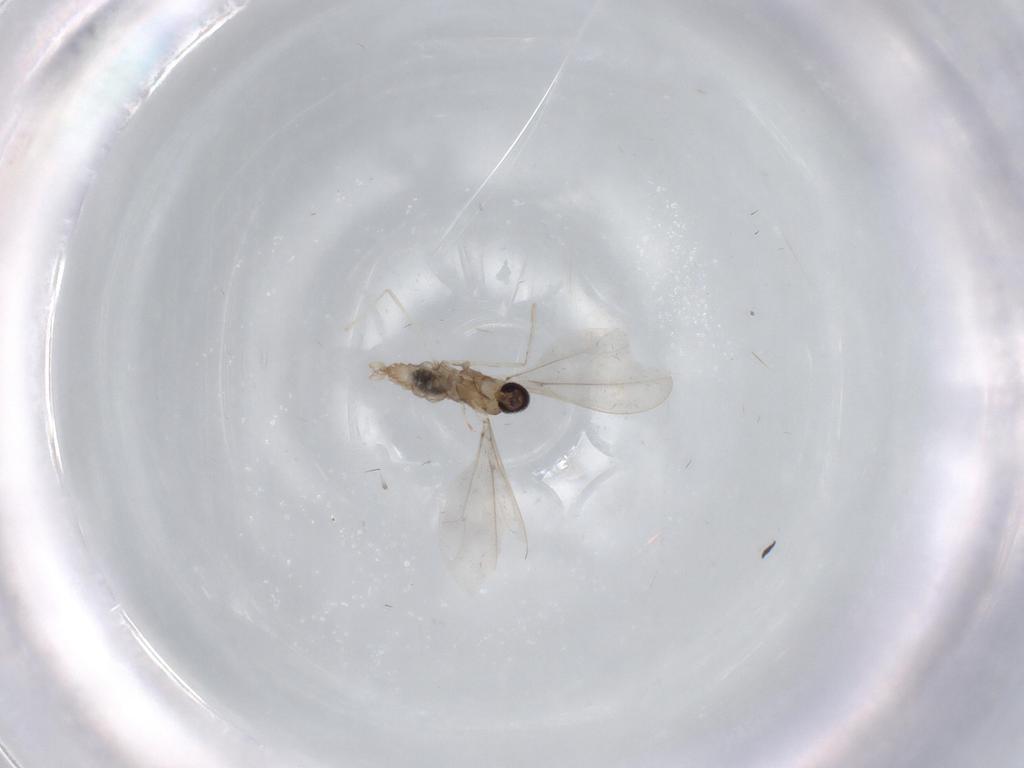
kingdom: Animalia
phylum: Arthropoda
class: Insecta
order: Diptera
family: Cecidomyiidae
